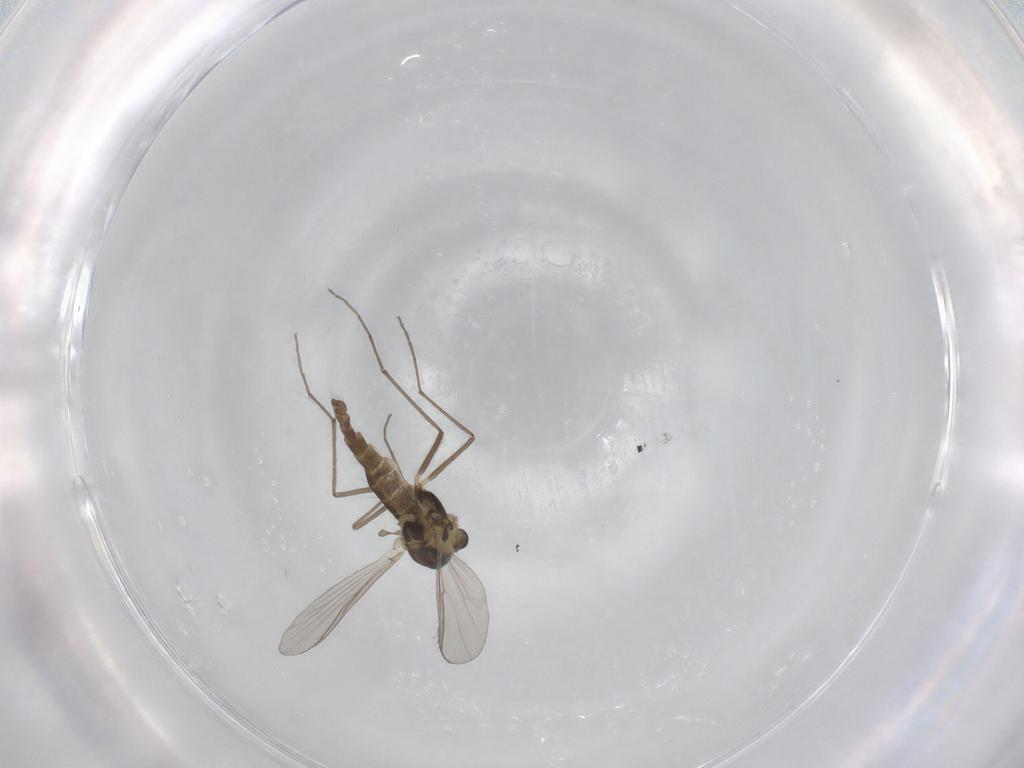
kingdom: Animalia
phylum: Arthropoda
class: Insecta
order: Diptera
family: Chironomidae
